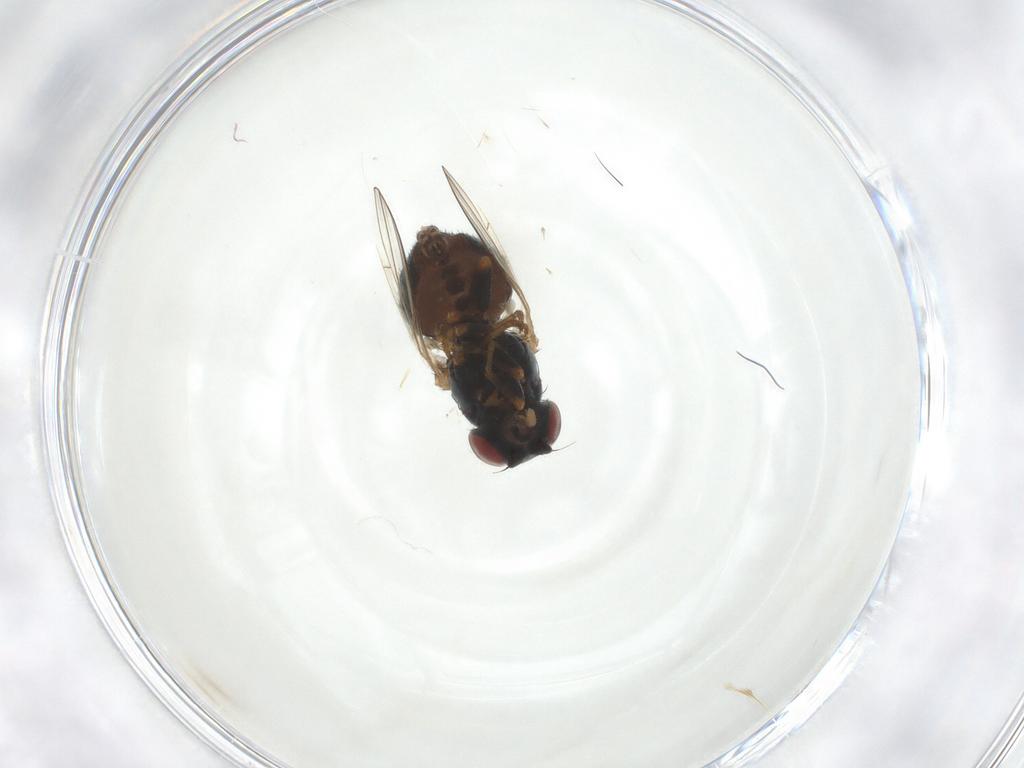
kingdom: Animalia
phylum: Arthropoda
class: Insecta
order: Diptera
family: Chamaemyiidae
